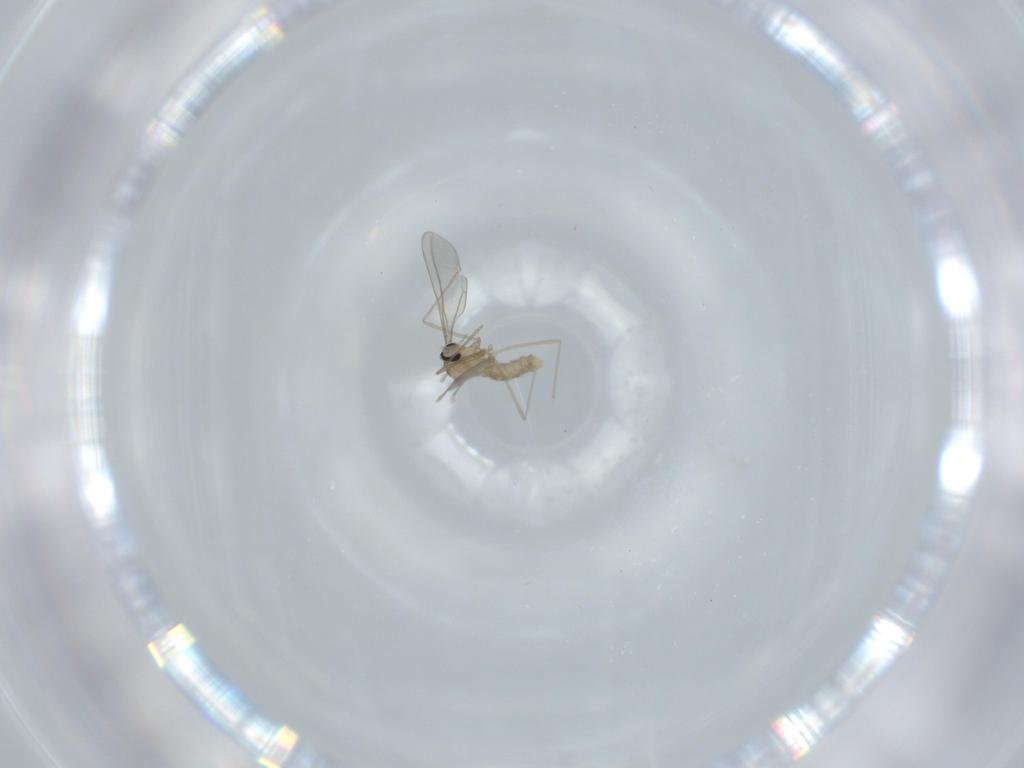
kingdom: Animalia
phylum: Arthropoda
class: Insecta
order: Diptera
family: Cecidomyiidae
